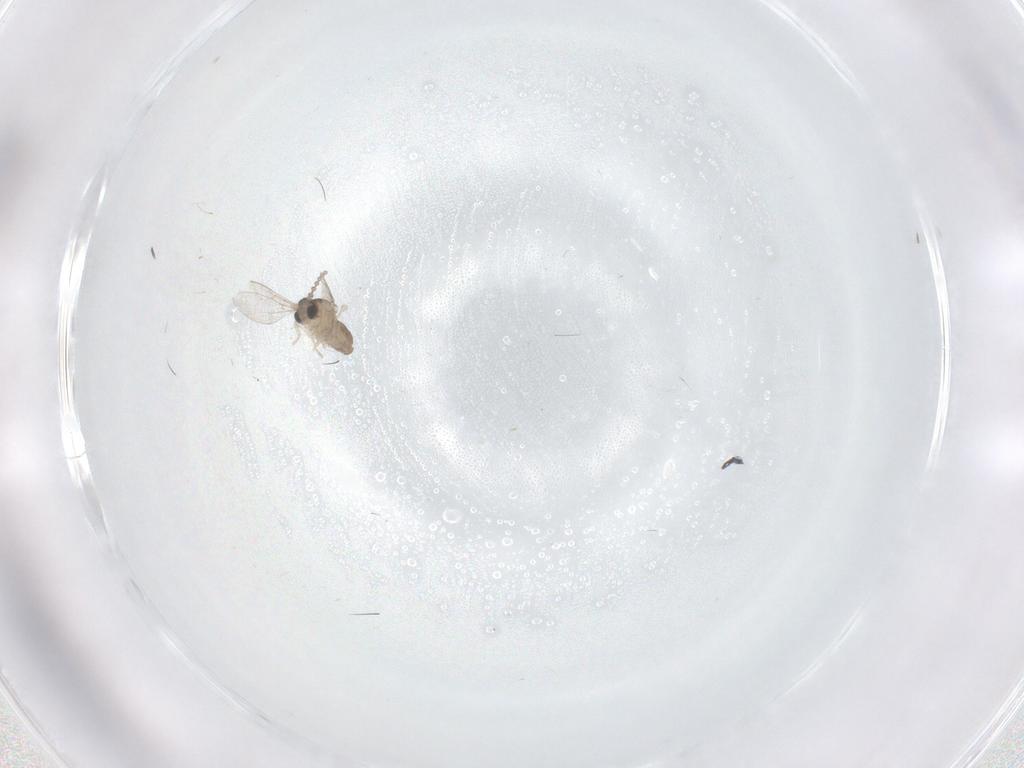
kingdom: Animalia
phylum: Arthropoda
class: Insecta
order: Diptera
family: Cecidomyiidae
